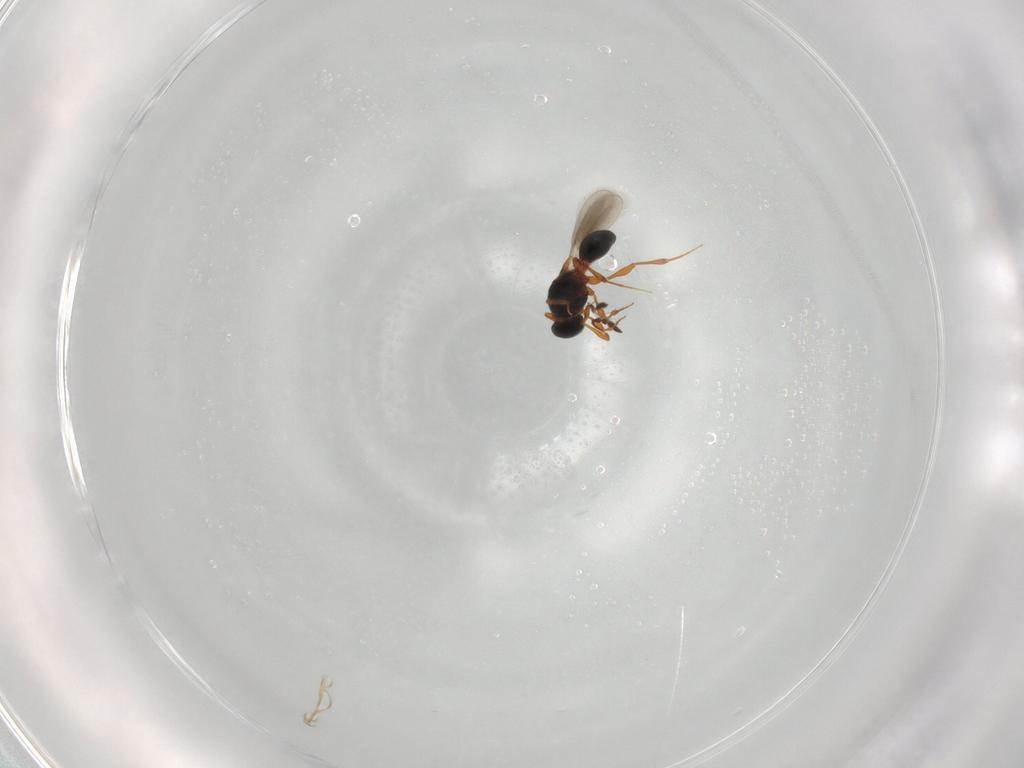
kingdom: Animalia
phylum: Arthropoda
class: Insecta
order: Hymenoptera
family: Platygastridae
